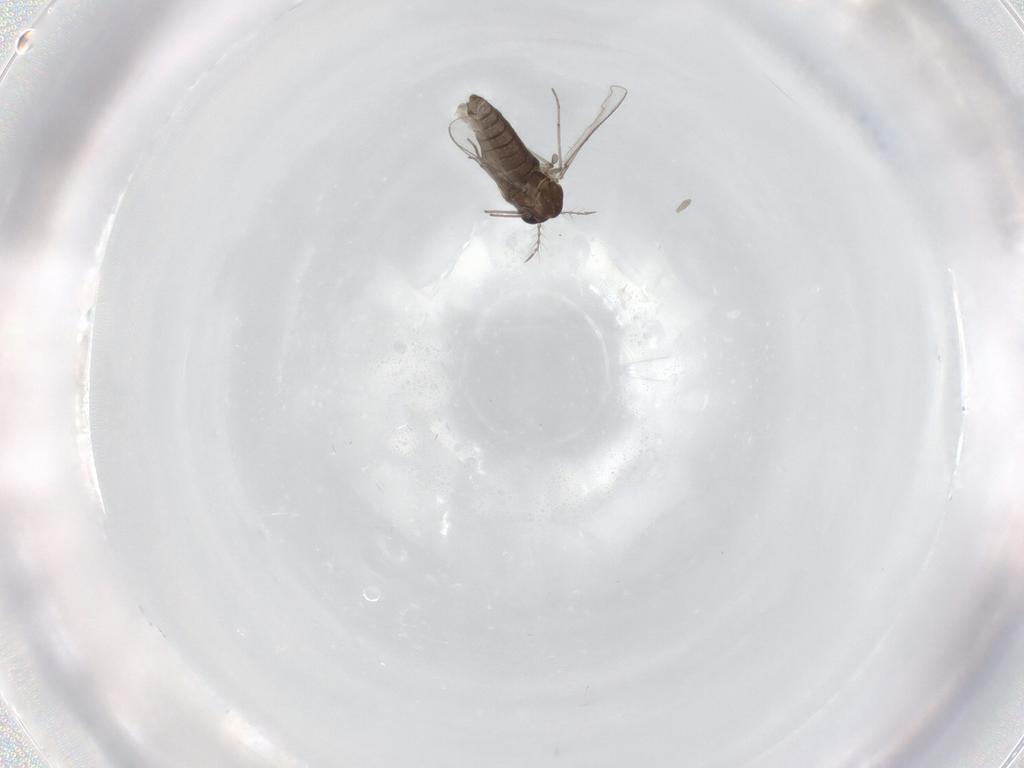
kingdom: Animalia
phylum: Arthropoda
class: Insecta
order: Diptera
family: Chironomidae
